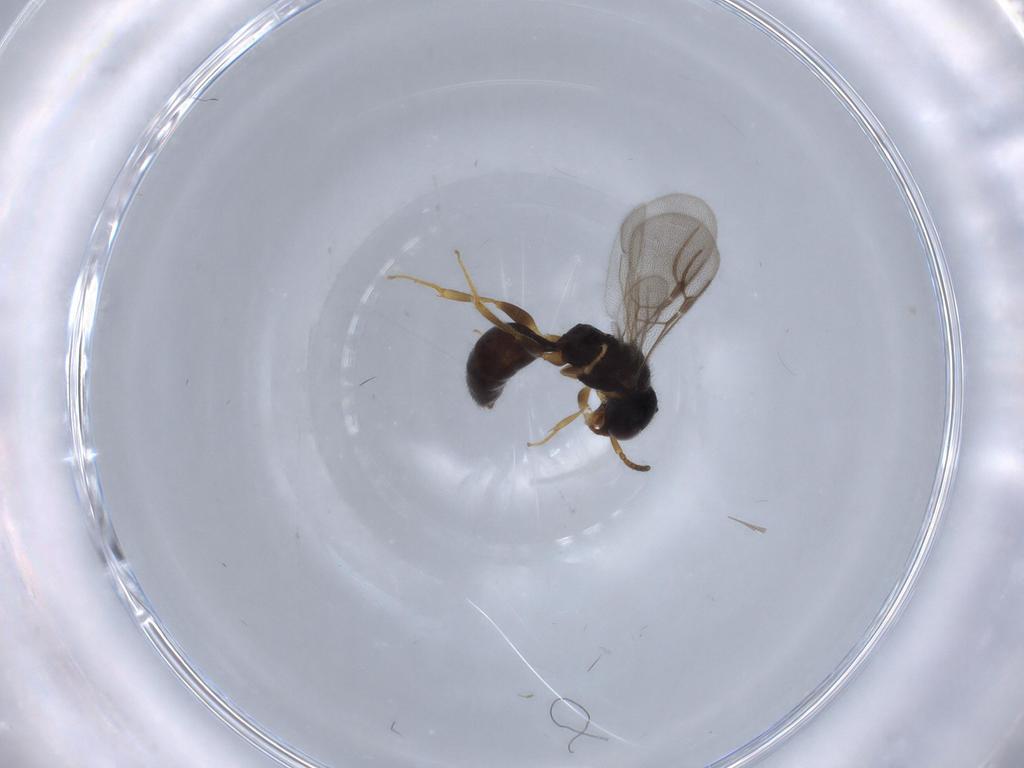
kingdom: Animalia
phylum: Arthropoda
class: Insecta
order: Hymenoptera
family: Bethylidae
